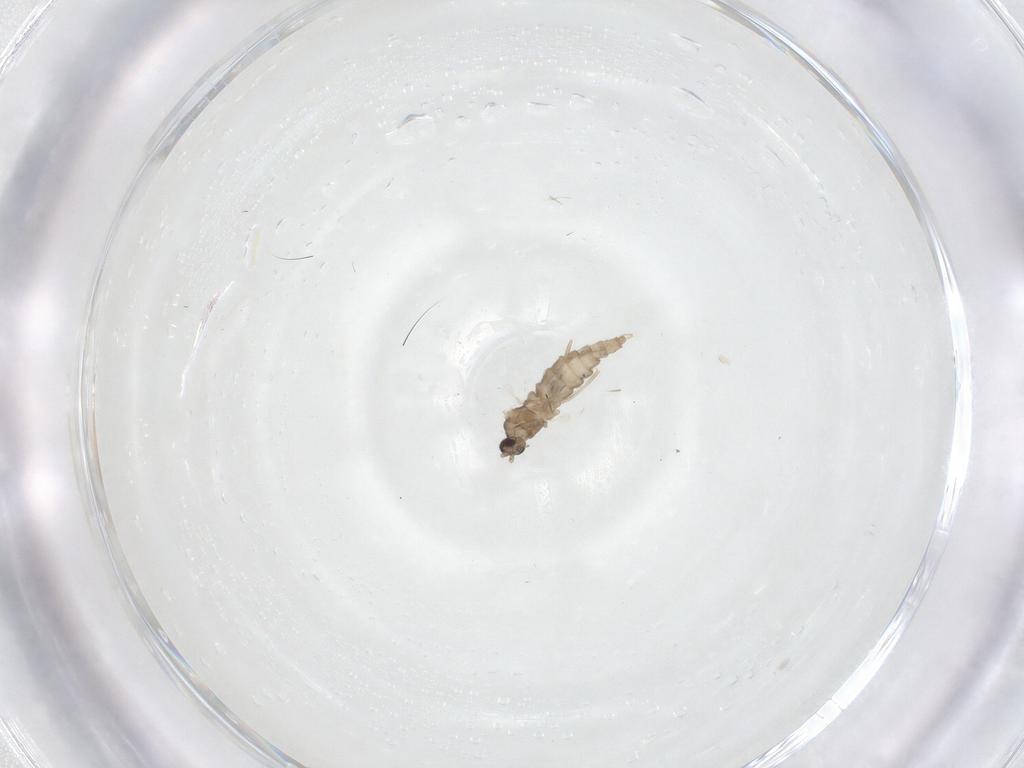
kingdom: Animalia
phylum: Arthropoda
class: Insecta
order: Diptera
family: Cecidomyiidae
